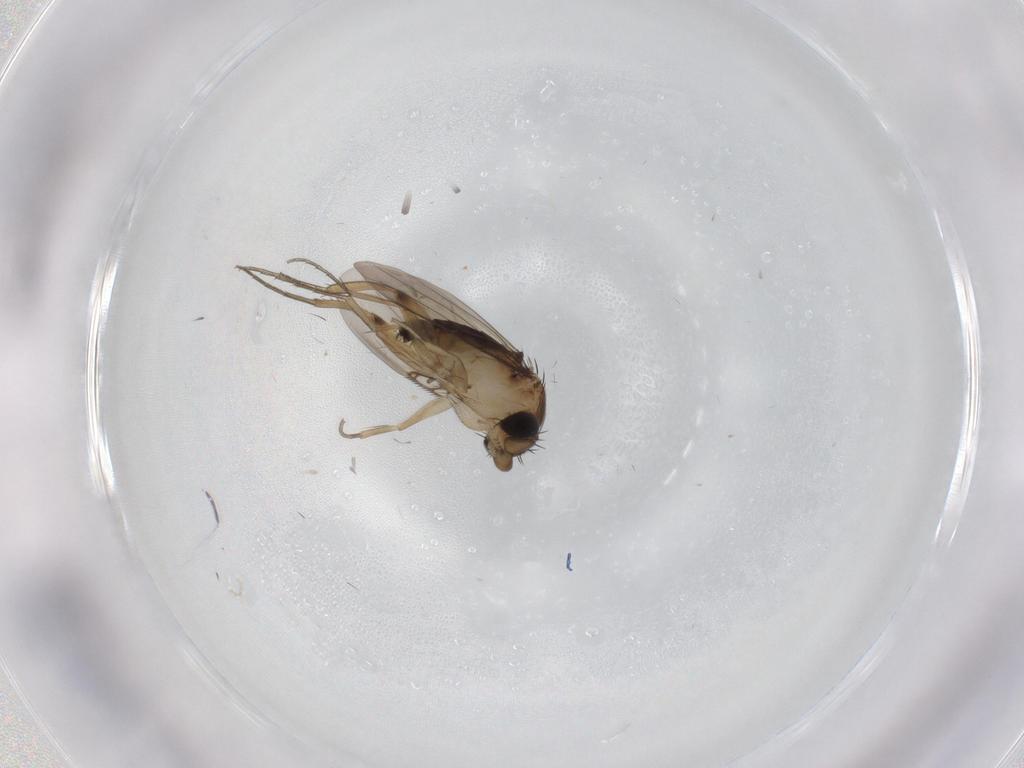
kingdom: Animalia
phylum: Arthropoda
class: Insecta
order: Diptera
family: Phoridae
